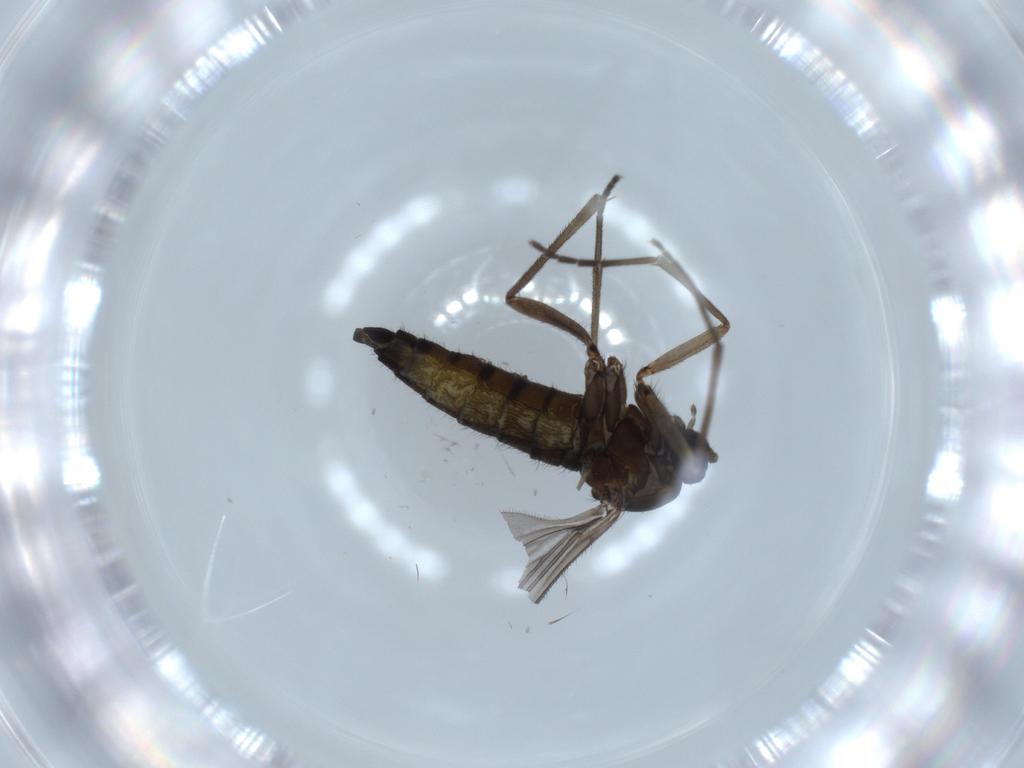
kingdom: Animalia
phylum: Arthropoda
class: Insecta
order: Diptera
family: Sciaridae
